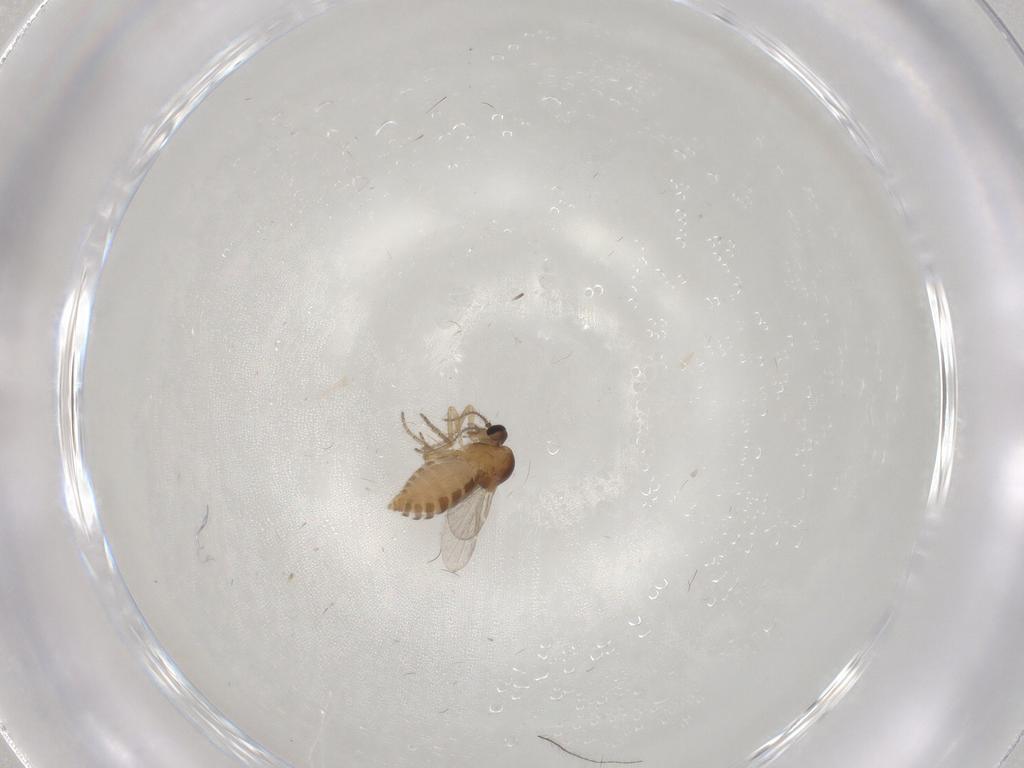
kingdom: Animalia
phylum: Arthropoda
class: Insecta
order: Diptera
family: Ceratopogonidae
